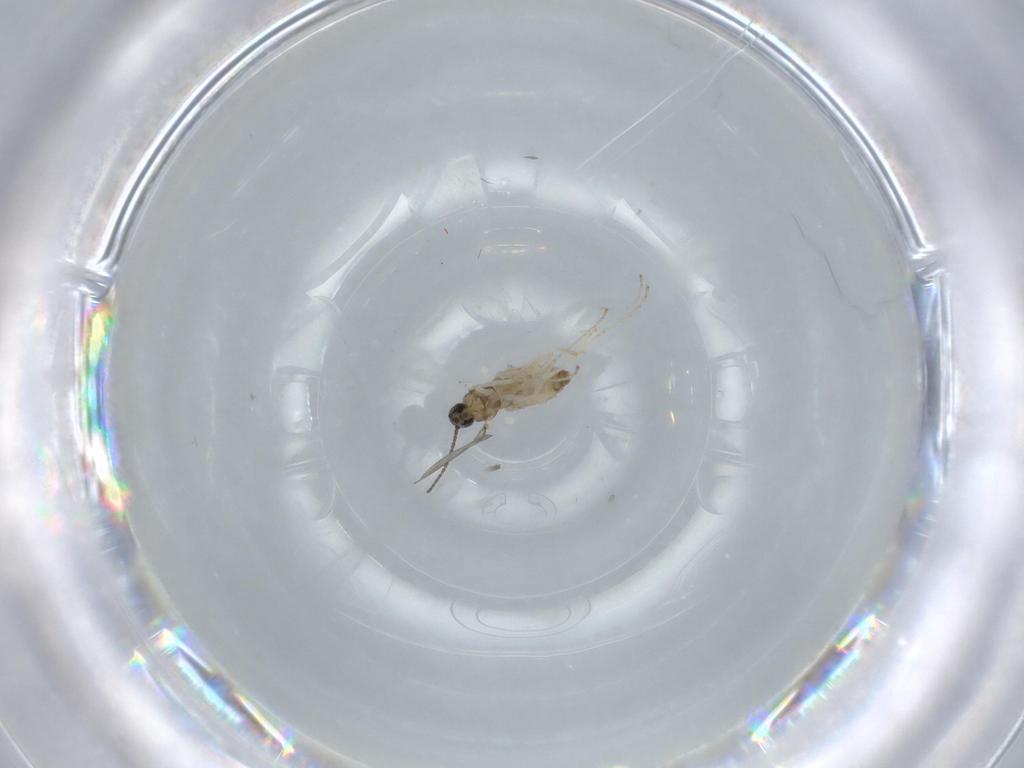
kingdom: Animalia
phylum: Arthropoda
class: Insecta
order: Diptera
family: Cecidomyiidae
